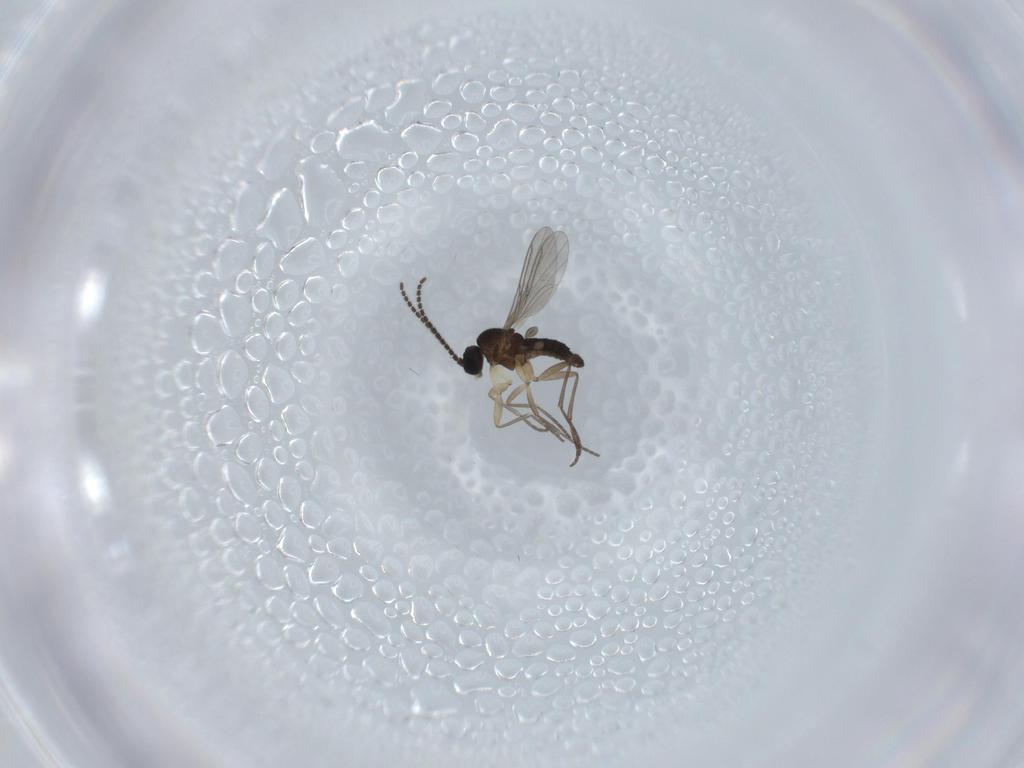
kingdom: Animalia
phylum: Arthropoda
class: Insecta
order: Diptera
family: Sciaridae
